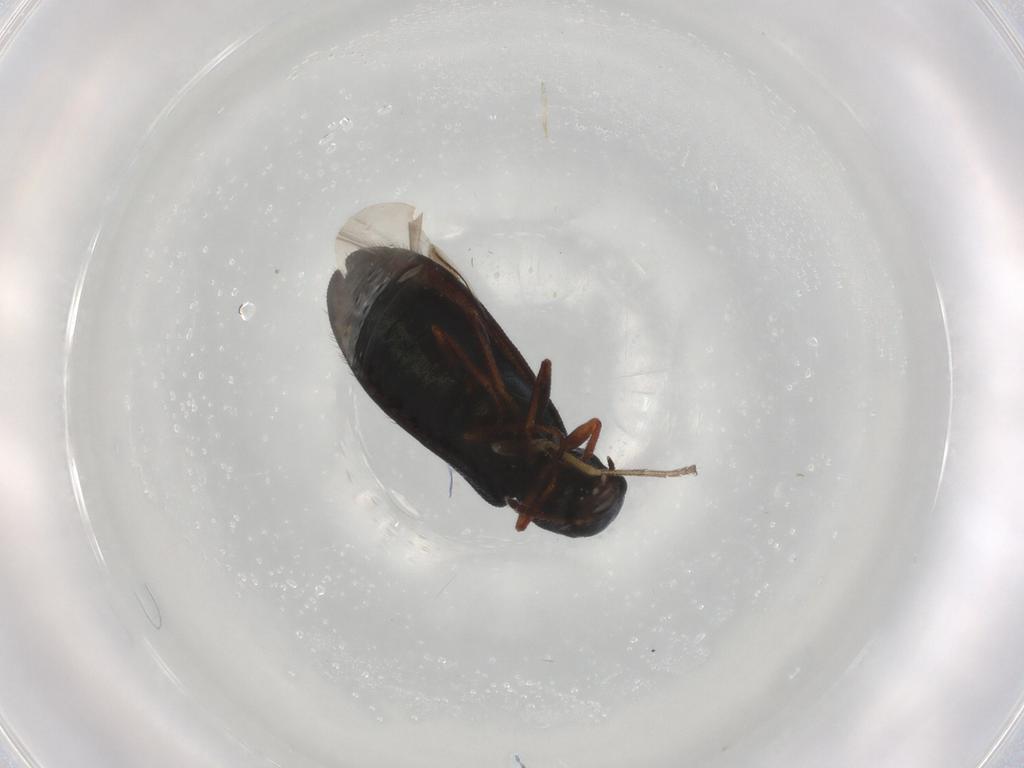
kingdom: Animalia
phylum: Arthropoda
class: Insecta
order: Coleoptera
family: Melyridae
